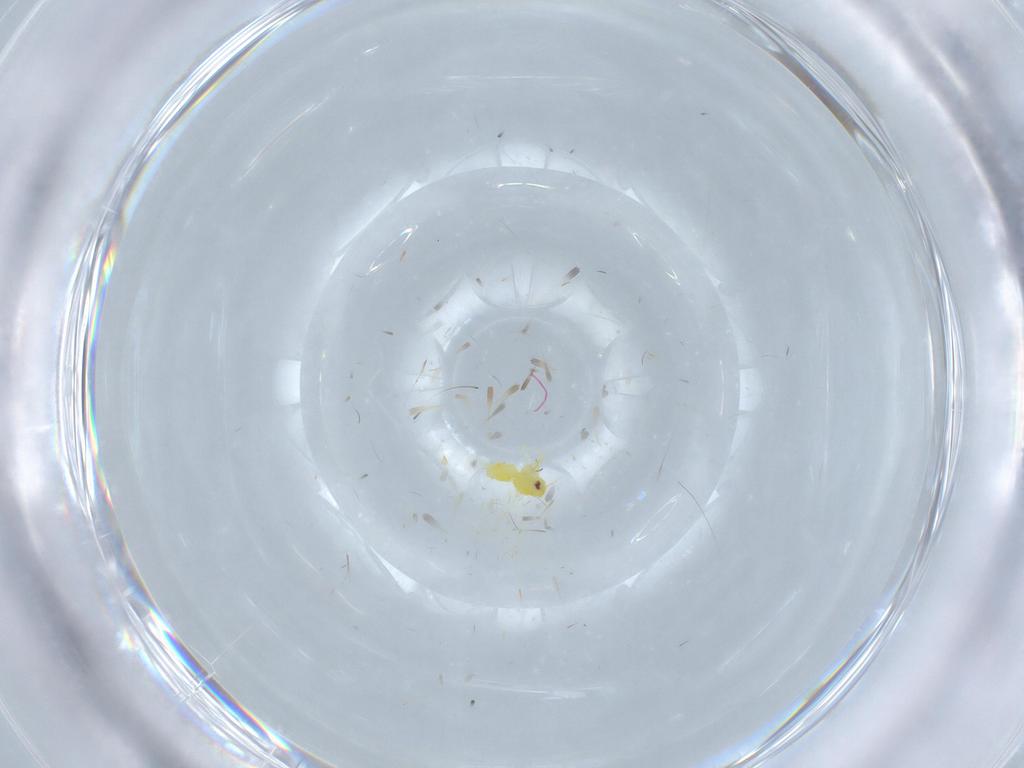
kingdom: Animalia
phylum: Arthropoda
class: Insecta
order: Hemiptera
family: Aleyrodidae
